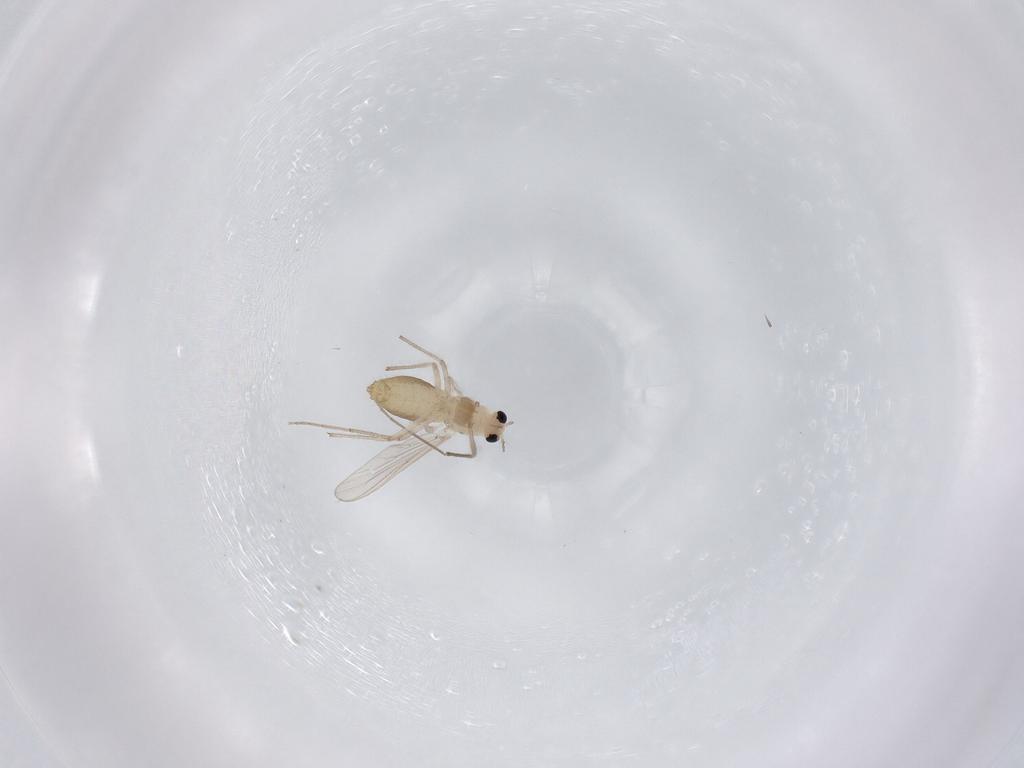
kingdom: Animalia
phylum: Arthropoda
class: Insecta
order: Diptera
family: Chironomidae
